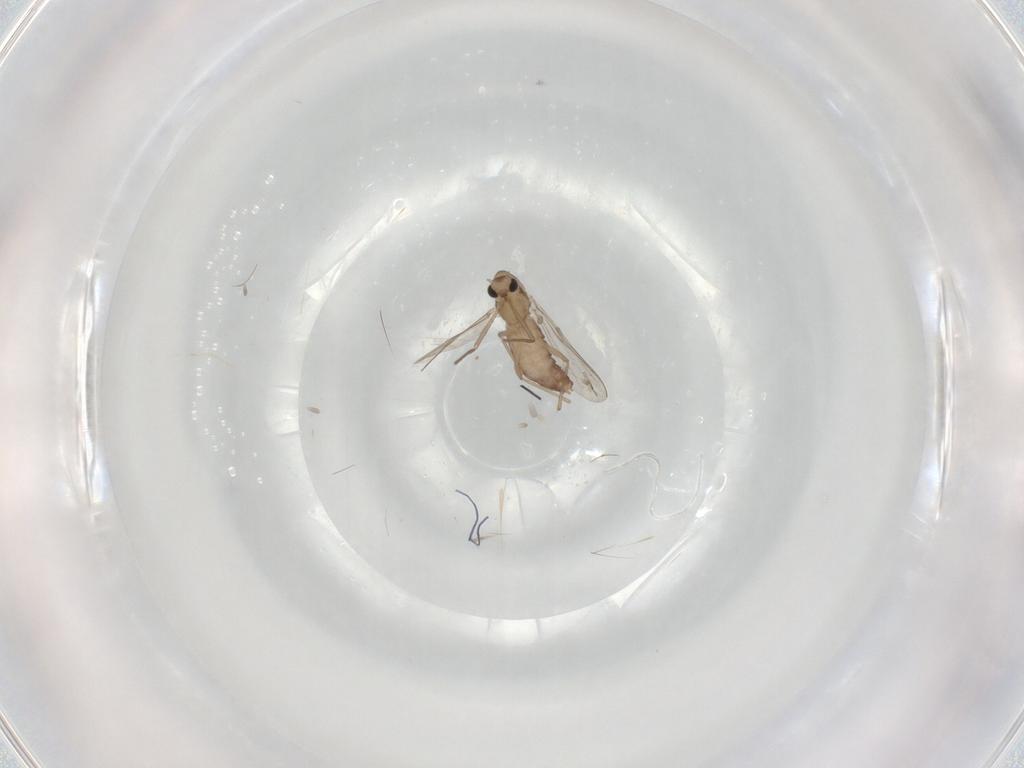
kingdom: Animalia
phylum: Arthropoda
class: Insecta
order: Diptera
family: Chironomidae
